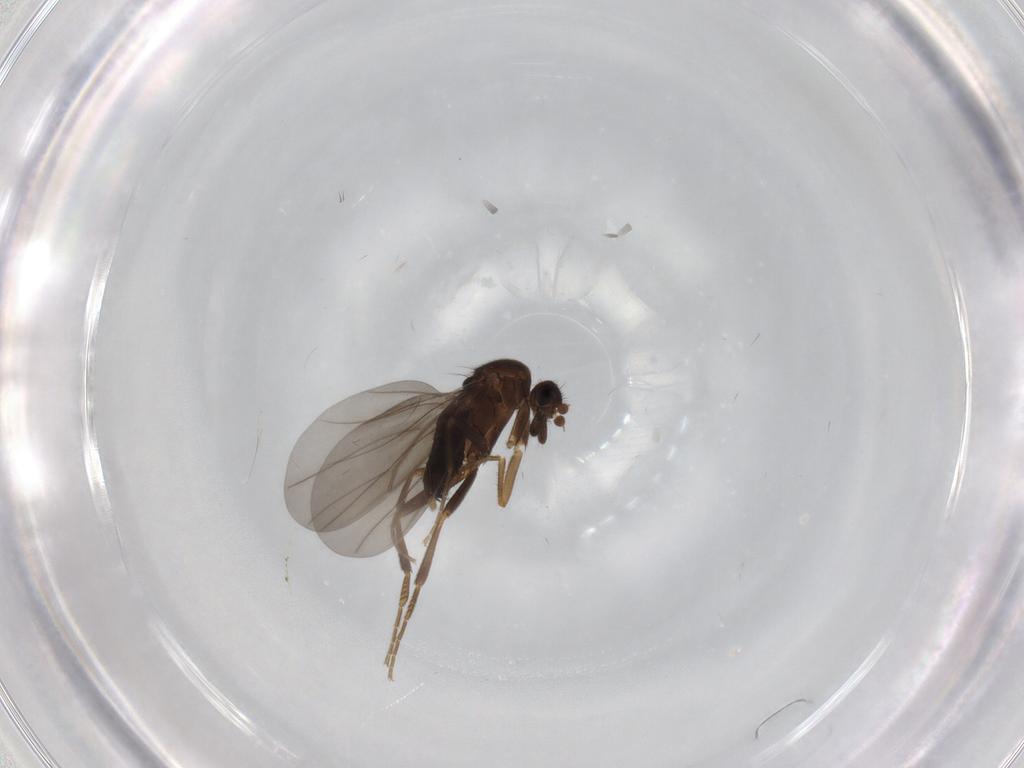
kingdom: Animalia
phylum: Arthropoda
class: Insecta
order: Diptera
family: Phoridae
